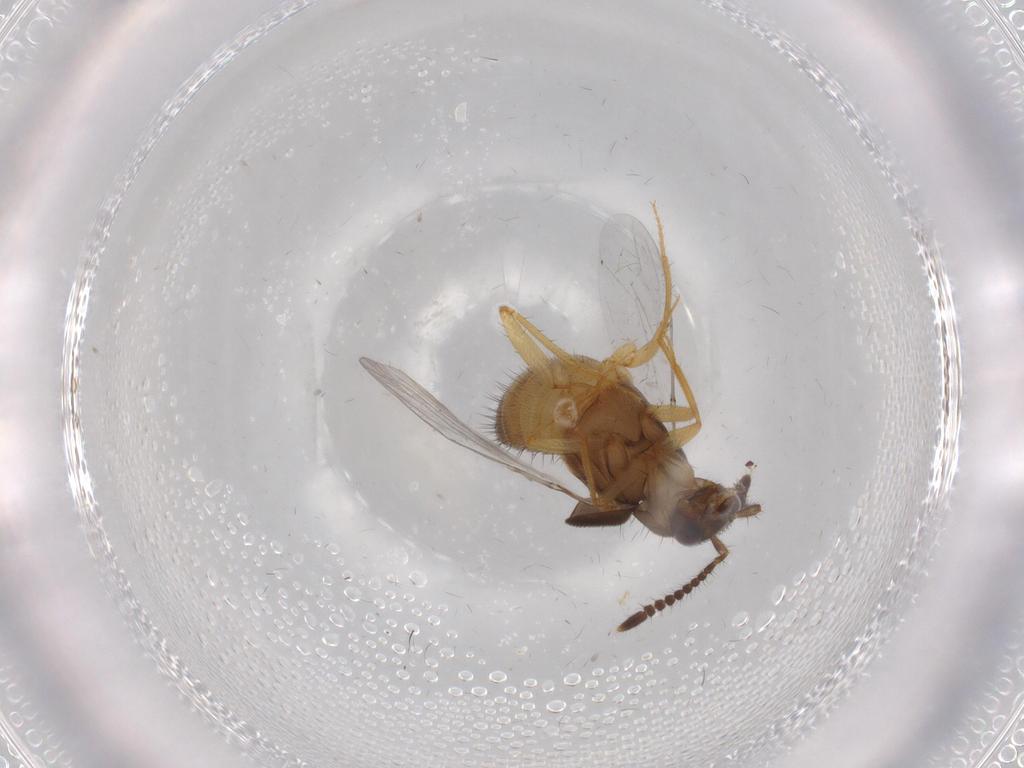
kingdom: Animalia
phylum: Arthropoda
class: Insecta
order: Coleoptera
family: Staphylinidae
